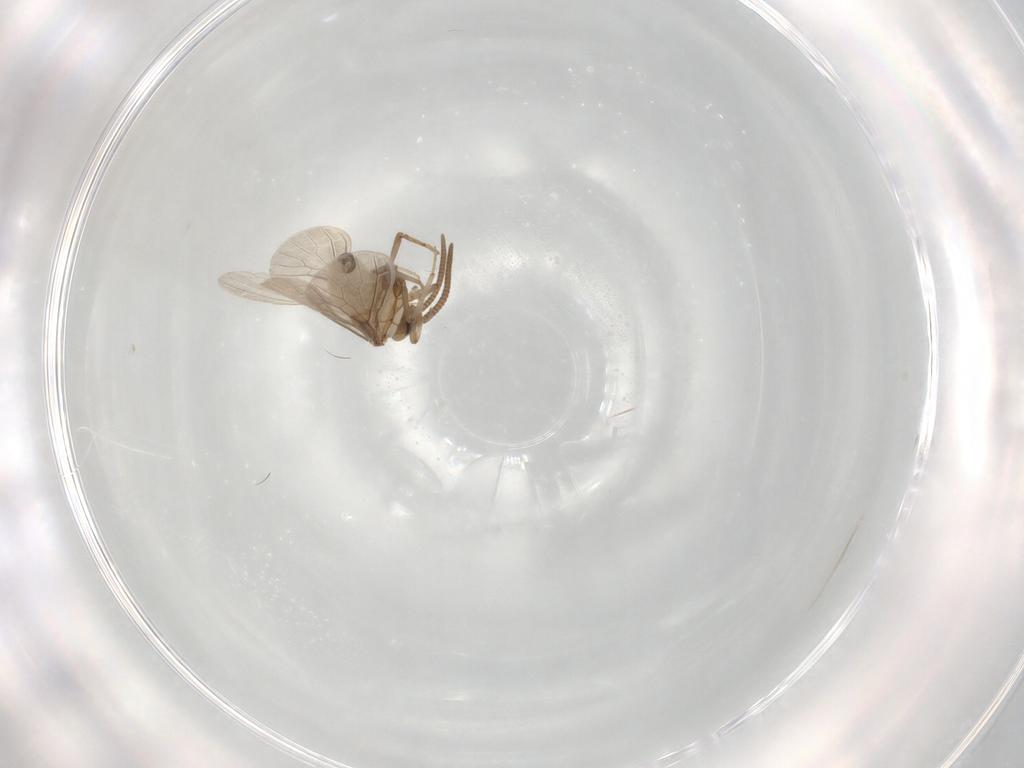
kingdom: Animalia
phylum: Arthropoda
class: Insecta
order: Neuroptera
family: Coniopterygidae
